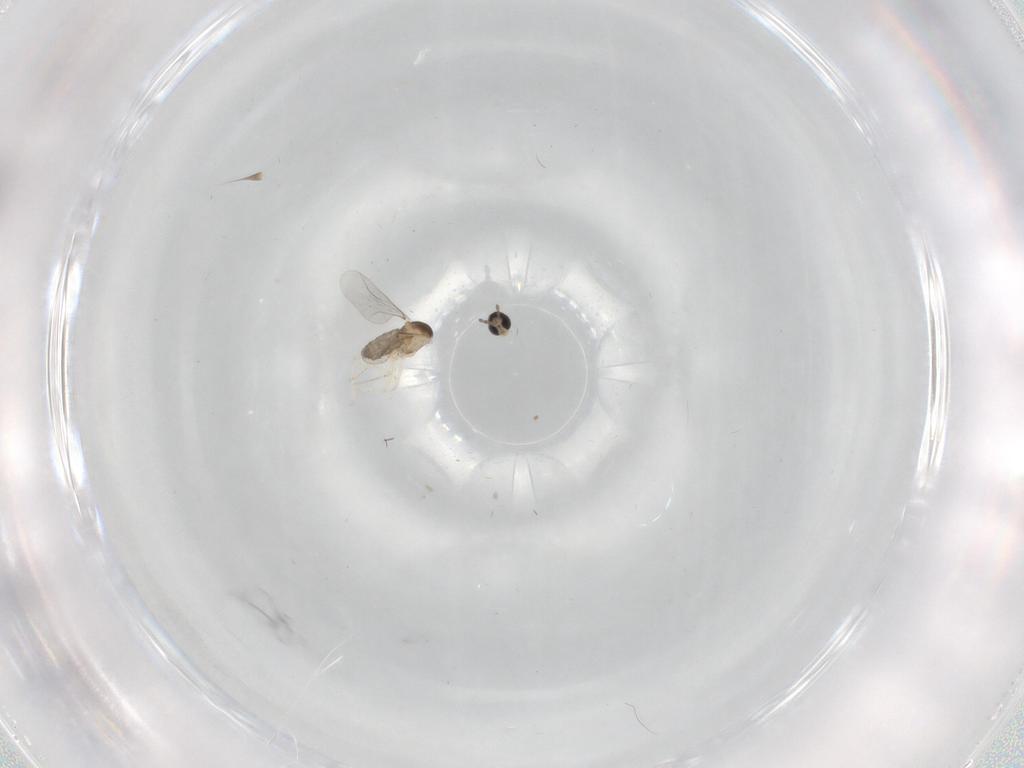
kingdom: Animalia
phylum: Arthropoda
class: Insecta
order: Diptera
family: Cecidomyiidae
